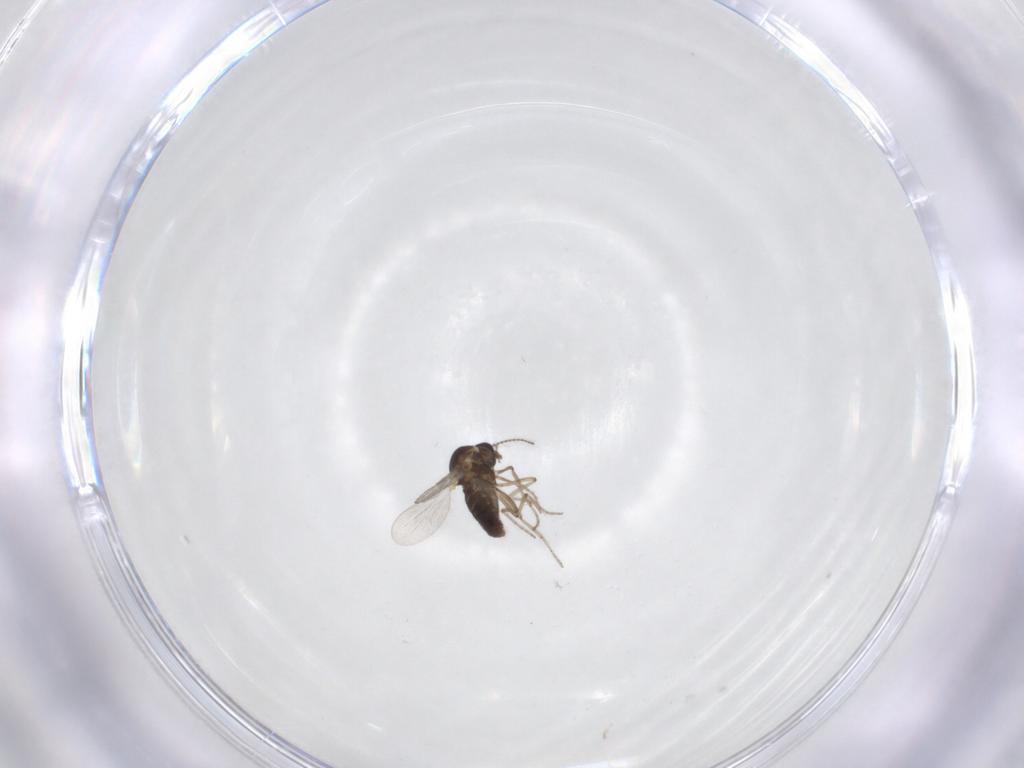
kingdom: Animalia
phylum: Arthropoda
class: Insecta
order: Diptera
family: Ceratopogonidae
